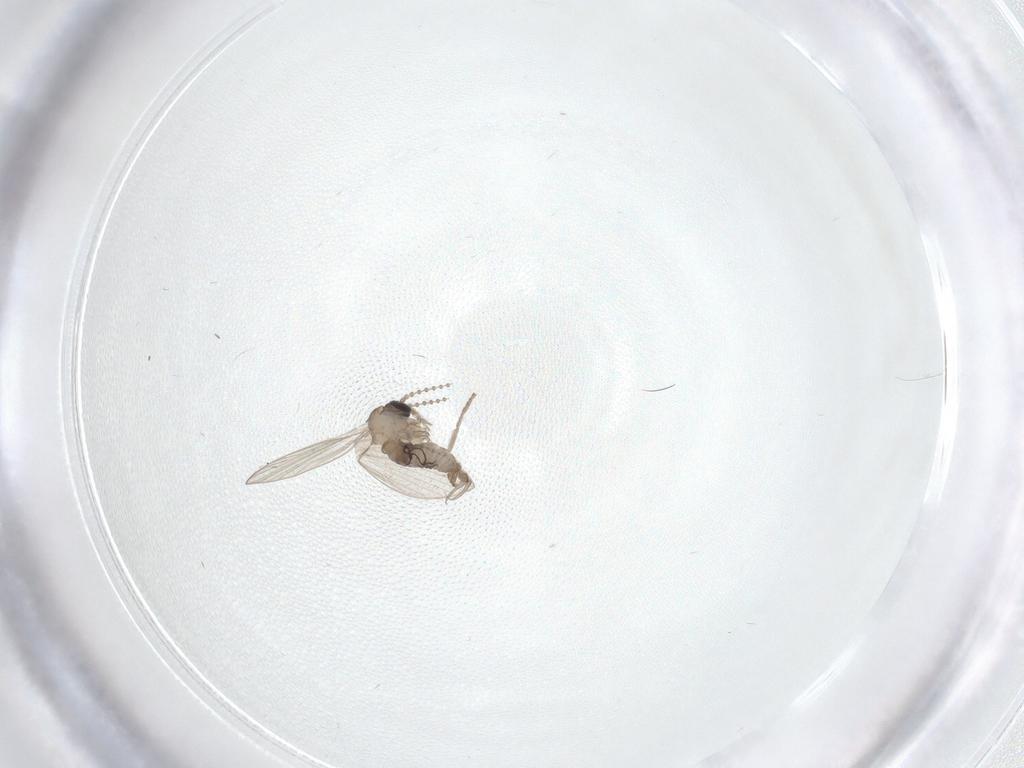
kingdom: Animalia
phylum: Arthropoda
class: Insecta
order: Diptera
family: Psychodidae
